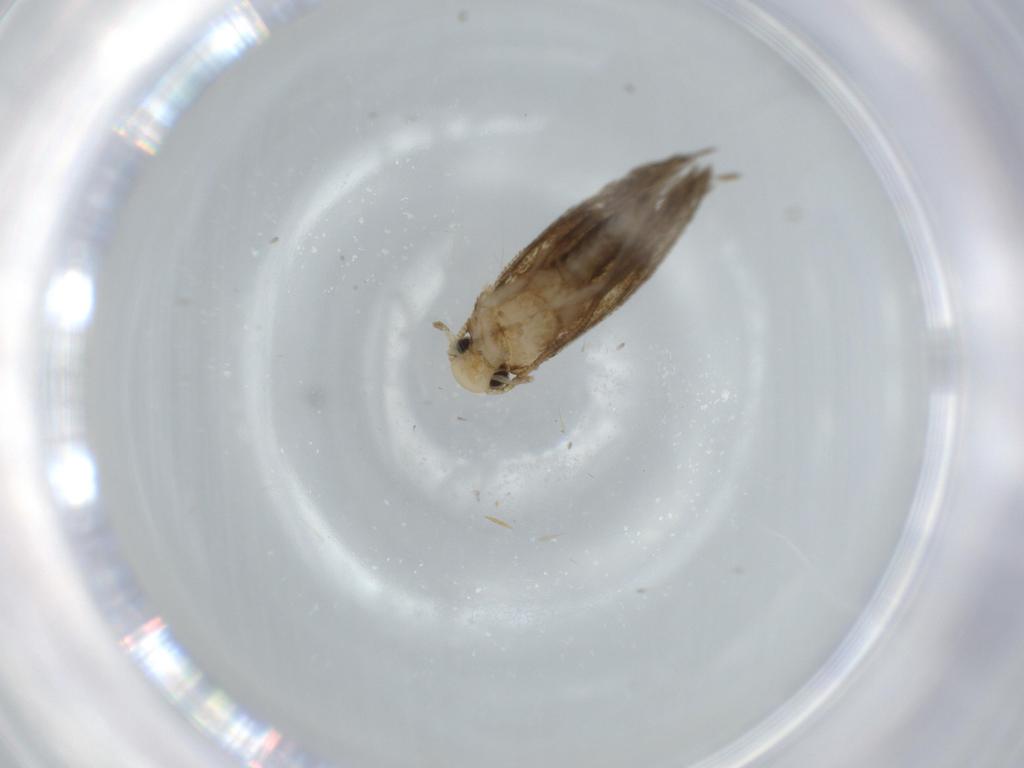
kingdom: Animalia
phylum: Arthropoda
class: Insecta
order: Lepidoptera
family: Tineidae
